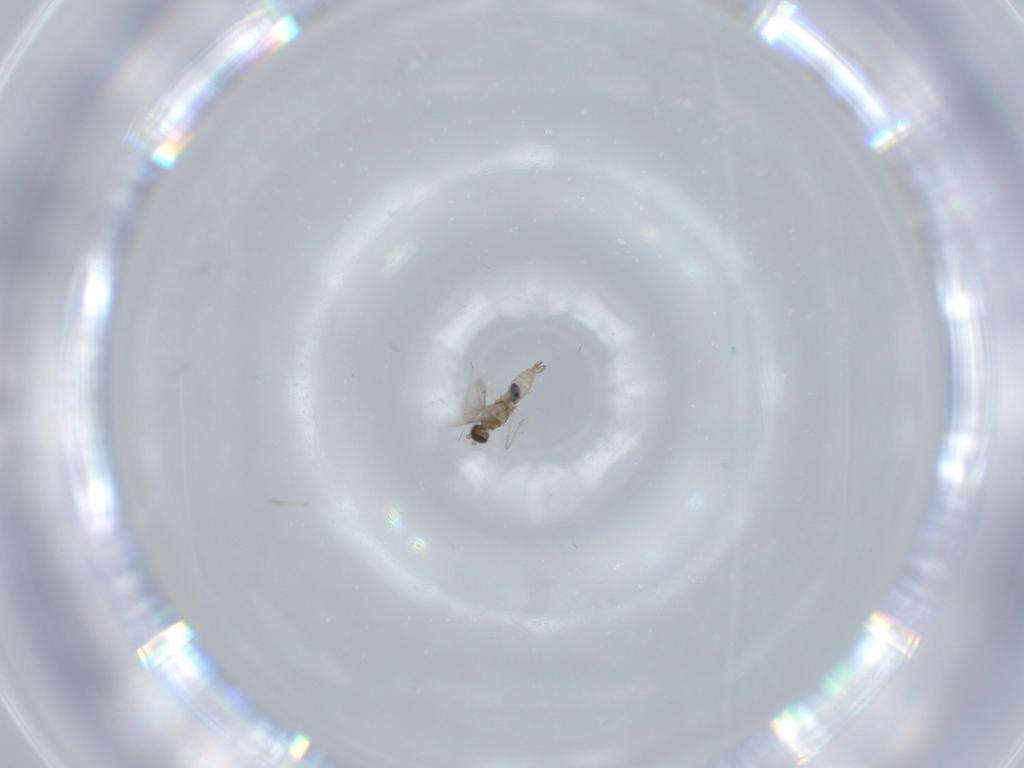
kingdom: Animalia
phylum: Arthropoda
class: Insecta
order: Diptera
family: Cecidomyiidae
